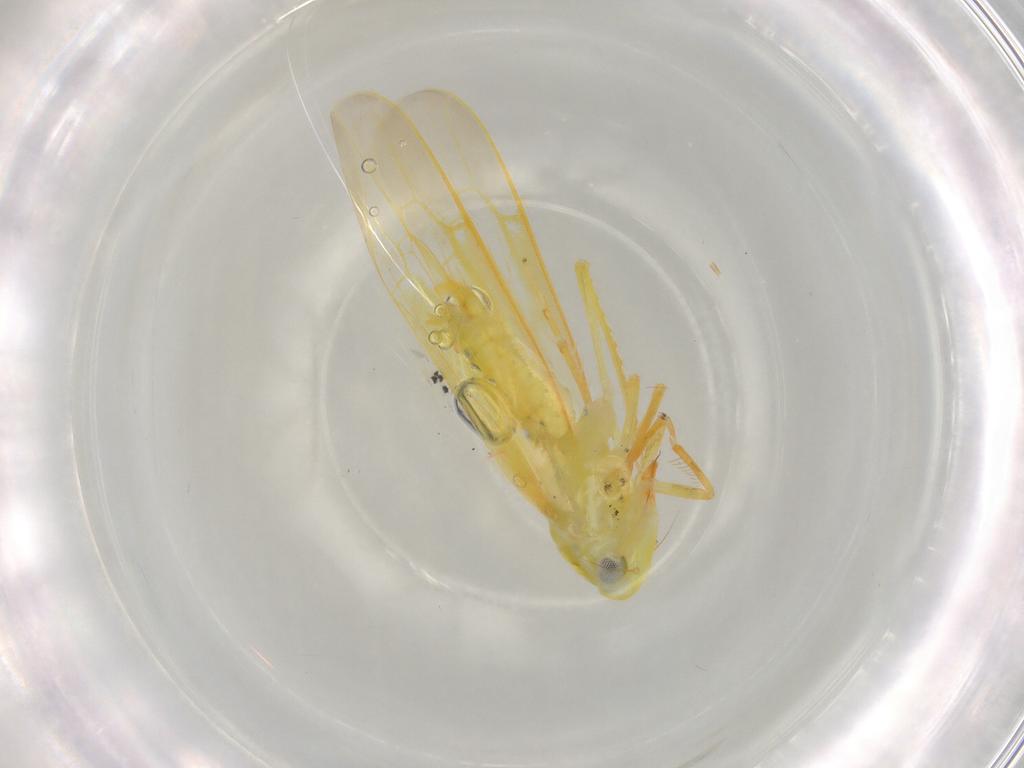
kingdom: Animalia
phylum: Arthropoda
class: Insecta
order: Hemiptera
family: Cicadellidae
